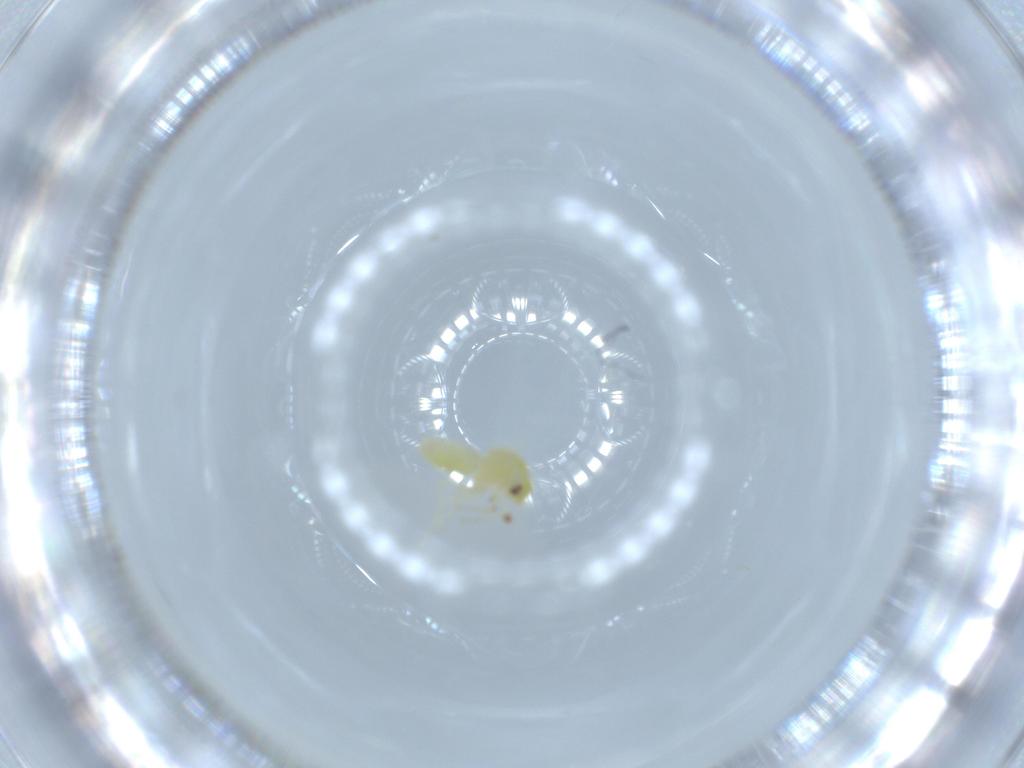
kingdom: Animalia
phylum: Arthropoda
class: Insecta
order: Hemiptera
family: Aleyrodidae
